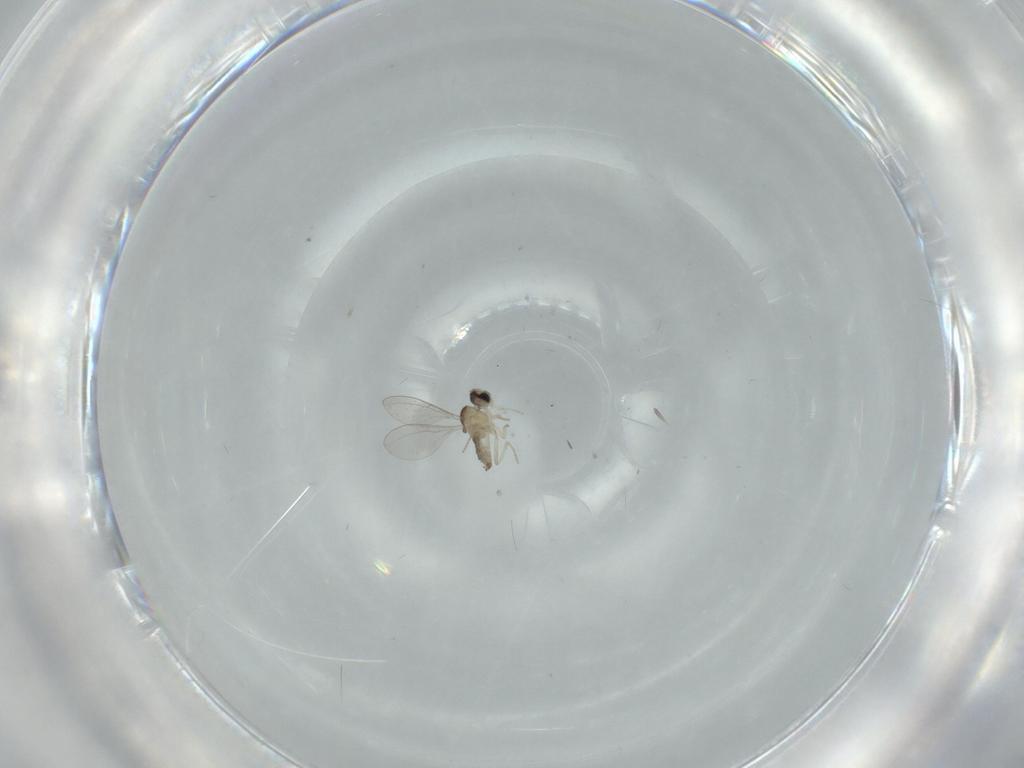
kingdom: Animalia
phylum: Arthropoda
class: Insecta
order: Diptera
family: Cecidomyiidae
